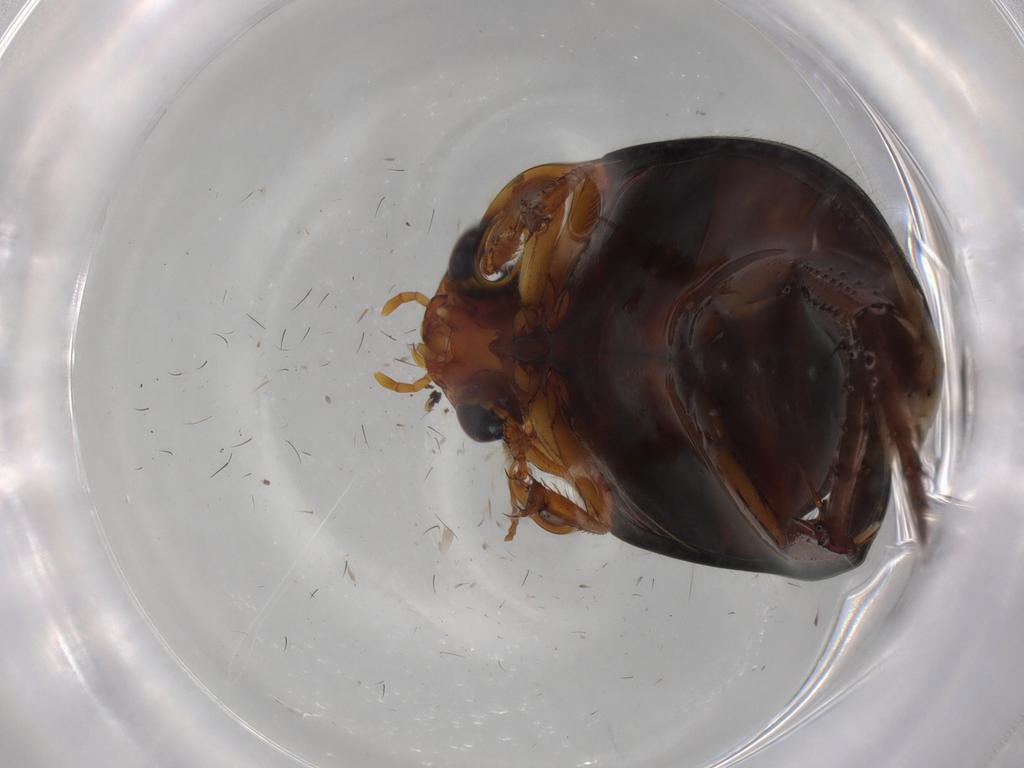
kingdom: Animalia
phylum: Arthropoda
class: Insecta
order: Coleoptera
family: Dytiscidae
